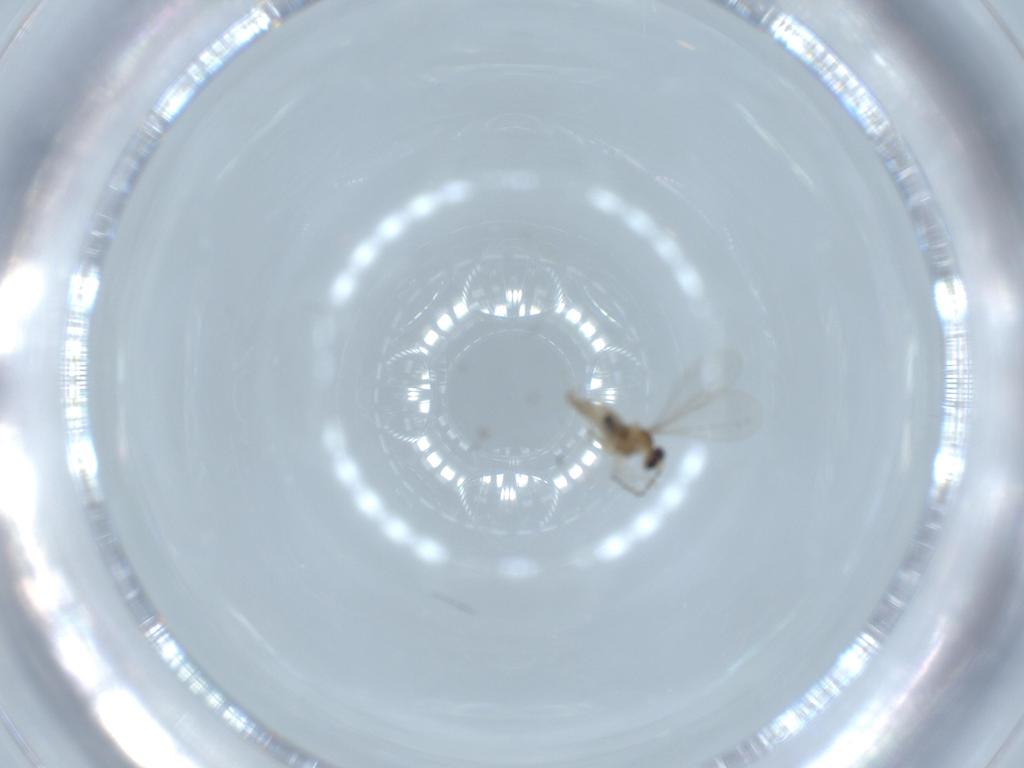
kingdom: Animalia
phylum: Arthropoda
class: Insecta
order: Diptera
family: Cecidomyiidae
